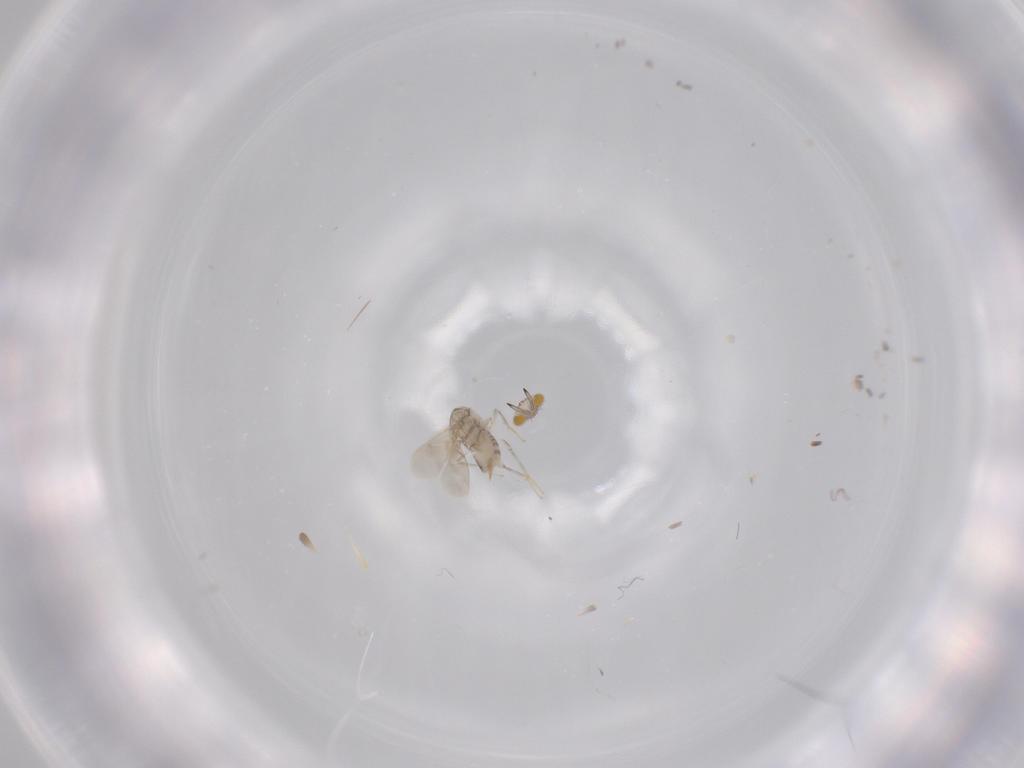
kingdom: Animalia
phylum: Arthropoda
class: Insecta
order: Hymenoptera
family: Aphelinidae
